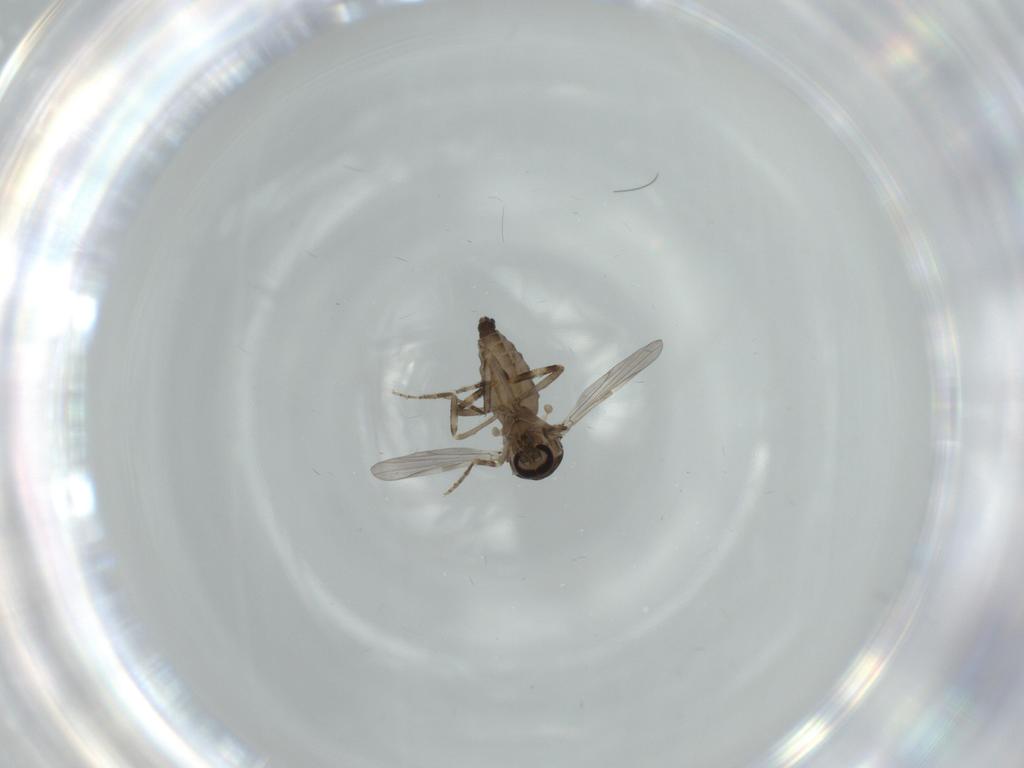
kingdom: Animalia
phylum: Arthropoda
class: Insecta
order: Diptera
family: Ceratopogonidae
